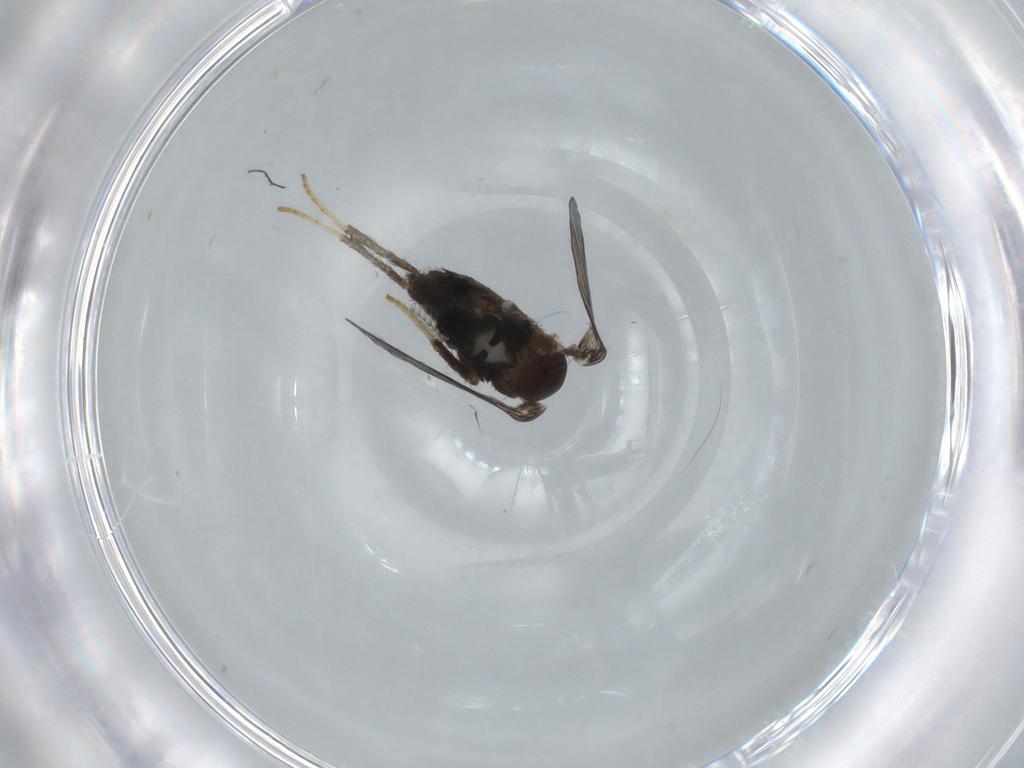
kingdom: Animalia
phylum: Arthropoda
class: Insecta
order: Diptera
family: Psychodidae
